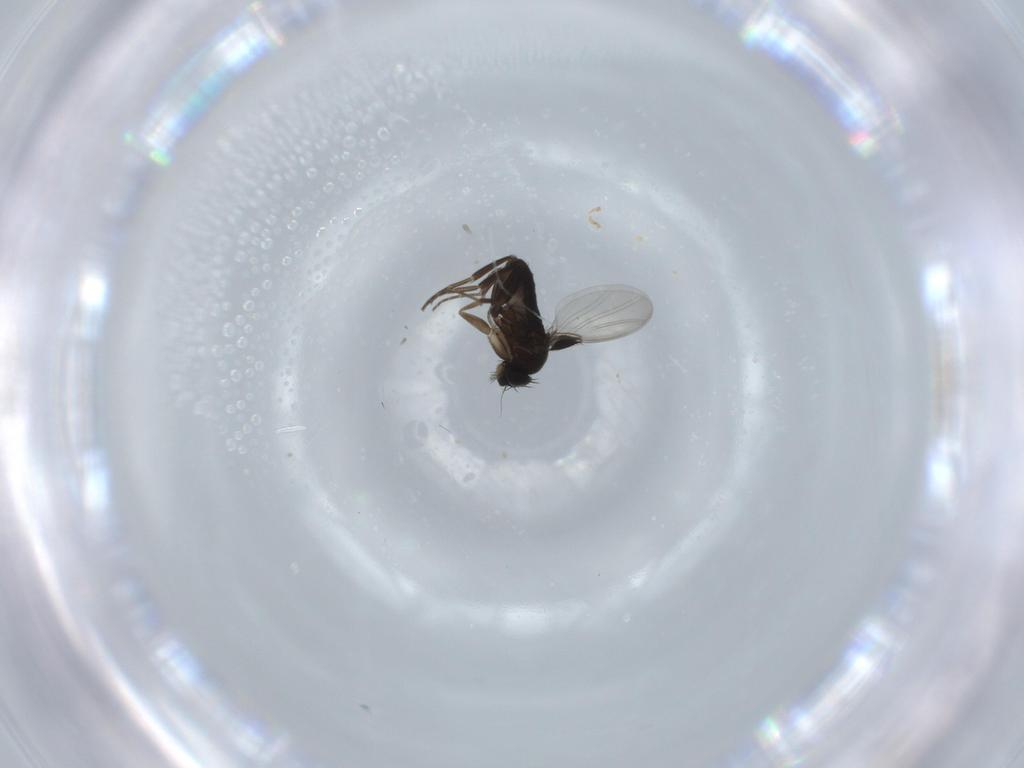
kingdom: Animalia
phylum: Arthropoda
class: Insecta
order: Diptera
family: Phoridae
